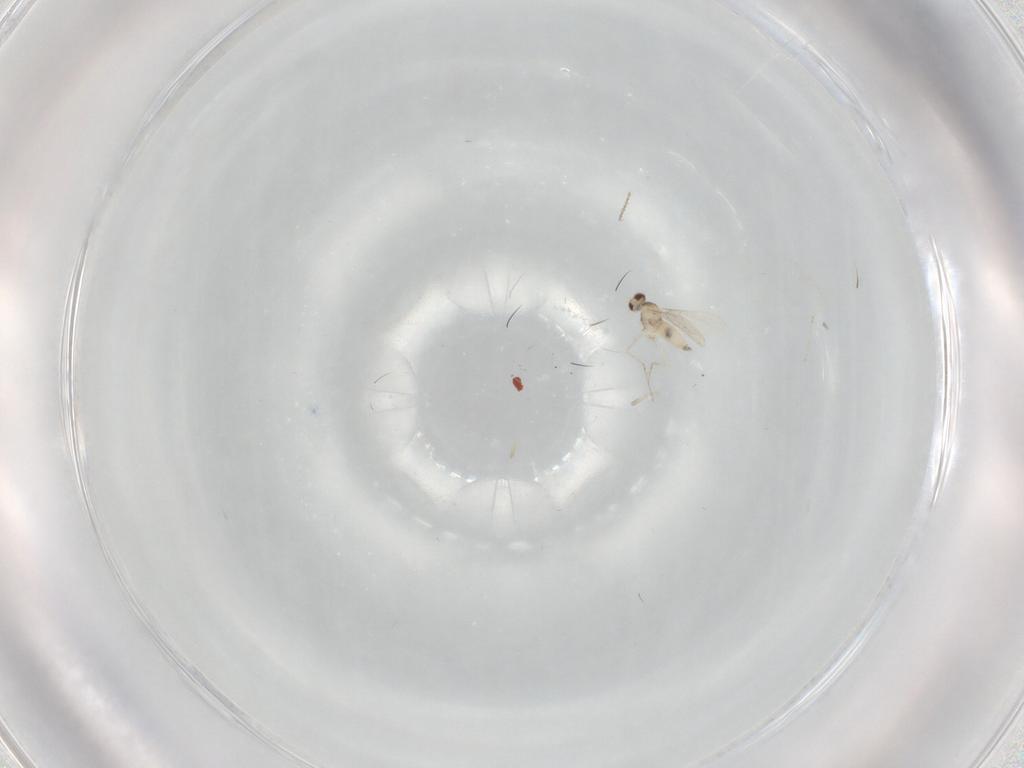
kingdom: Animalia
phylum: Arthropoda
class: Insecta
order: Diptera
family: Cecidomyiidae
